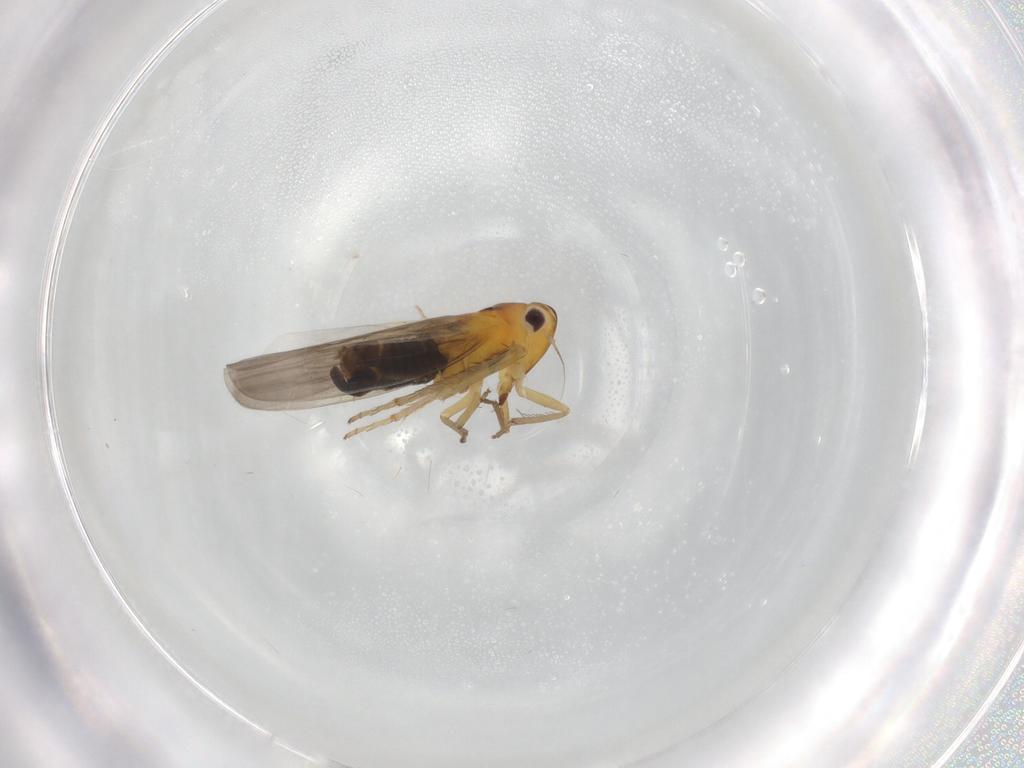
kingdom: Animalia
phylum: Arthropoda
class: Insecta
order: Hemiptera
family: Cicadellidae
